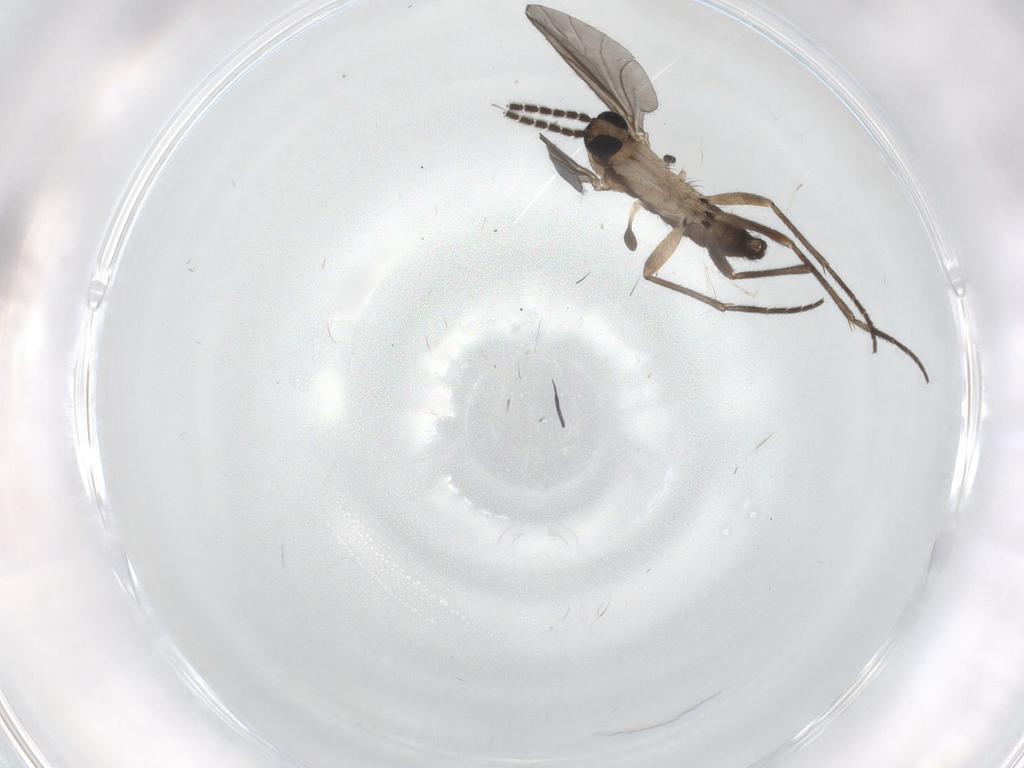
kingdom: Animalia
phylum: Arthropoda
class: Insecta
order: Diptera
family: Cecidomyiidae
